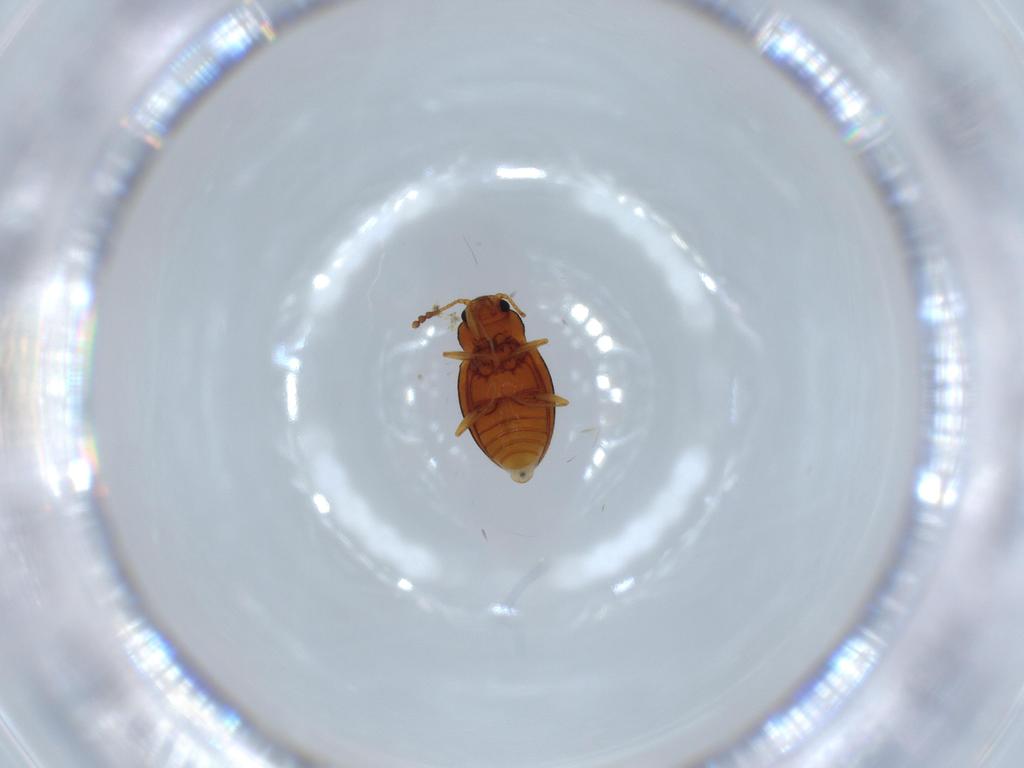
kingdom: Animalia
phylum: Arthropoda
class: Insecta
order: Coleoptera
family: Erotylidae
